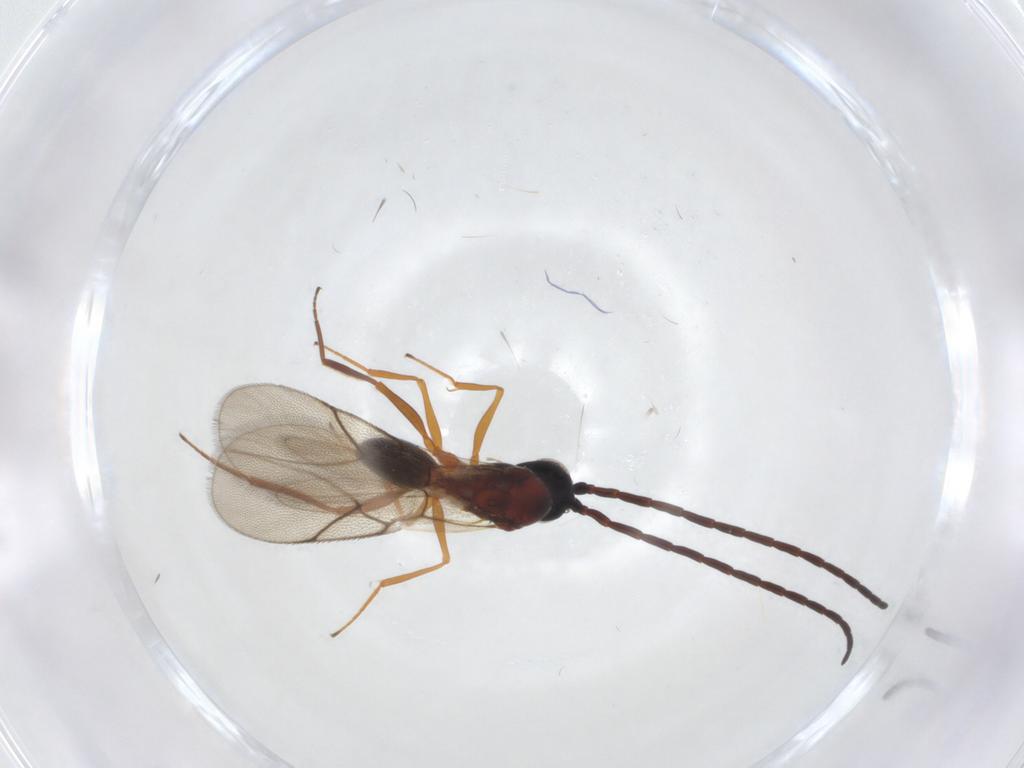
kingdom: Animalia
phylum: Arthropoda
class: Insecta
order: Hymenoptera
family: Figitidae
